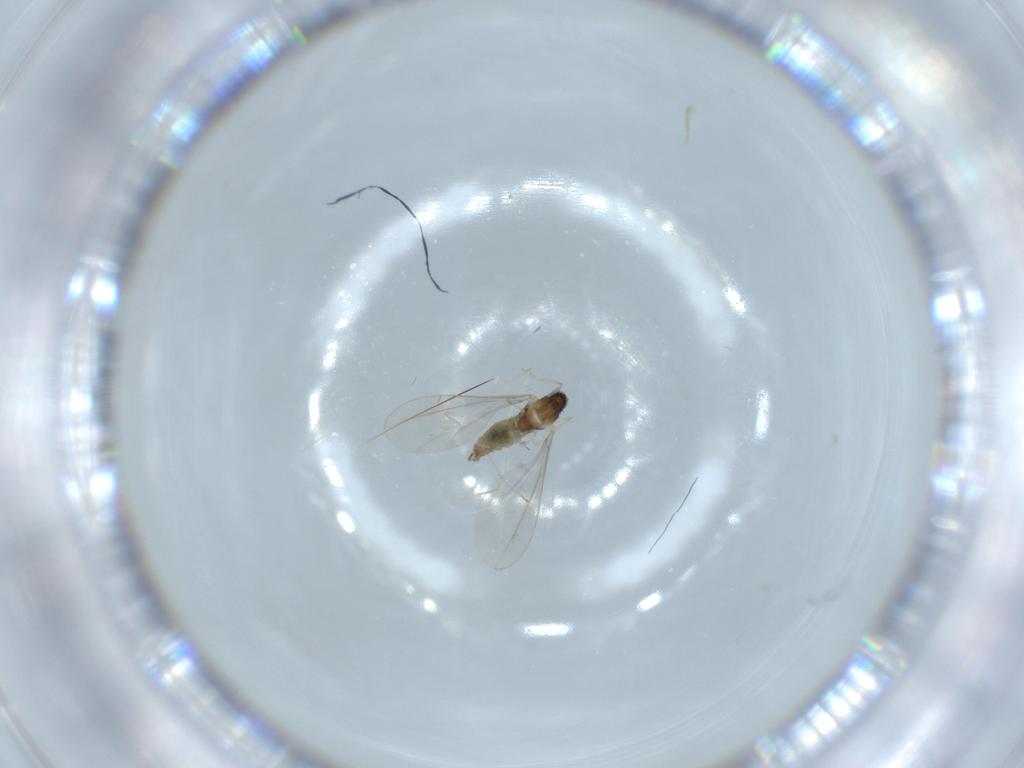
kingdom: Animalia
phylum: Arthropoda
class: Insecta
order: Diptera
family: Cecidomyiidae
